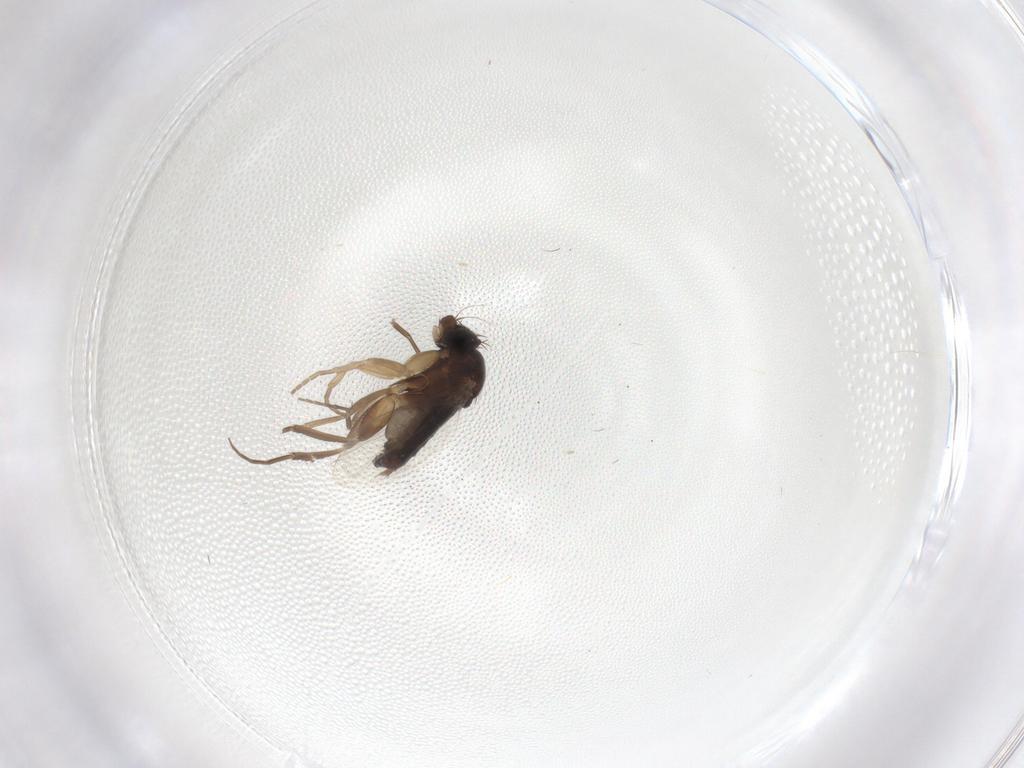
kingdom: Animalia
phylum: Arthropoda
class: Insecta
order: Diptera
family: Phoridae
